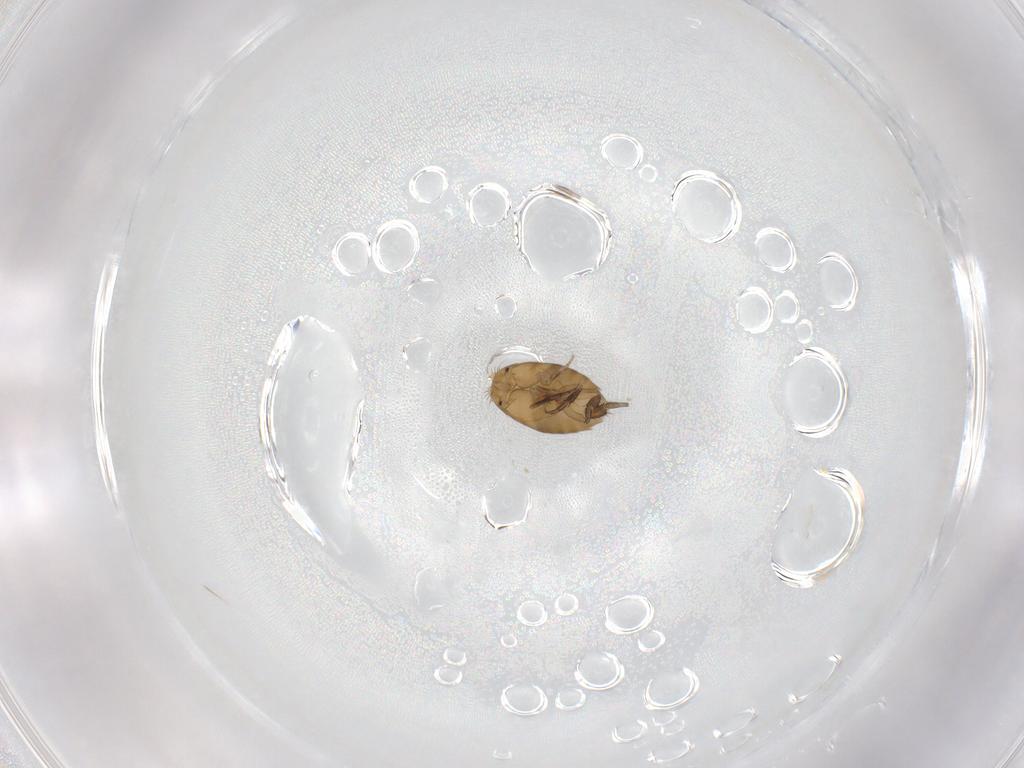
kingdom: Animalia
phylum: Arthropoda
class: Insecta
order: Diptera
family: Phoridae
